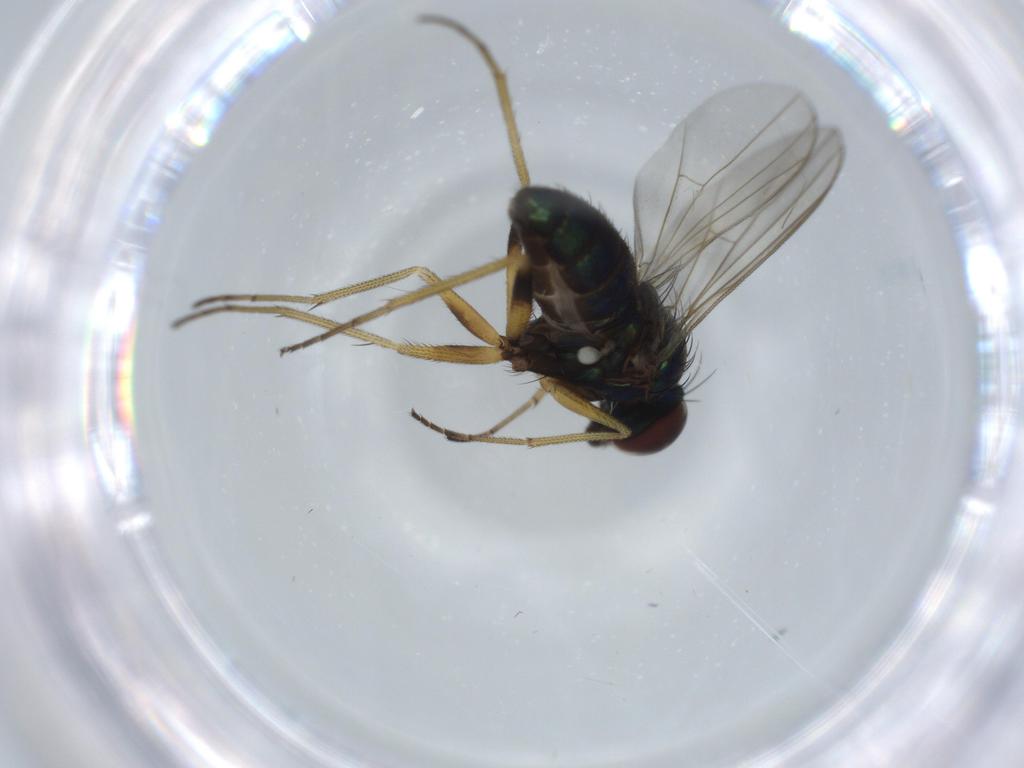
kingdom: Animalia
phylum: Arthropoda
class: Insecta
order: Diptera
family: Dolichopodidae
